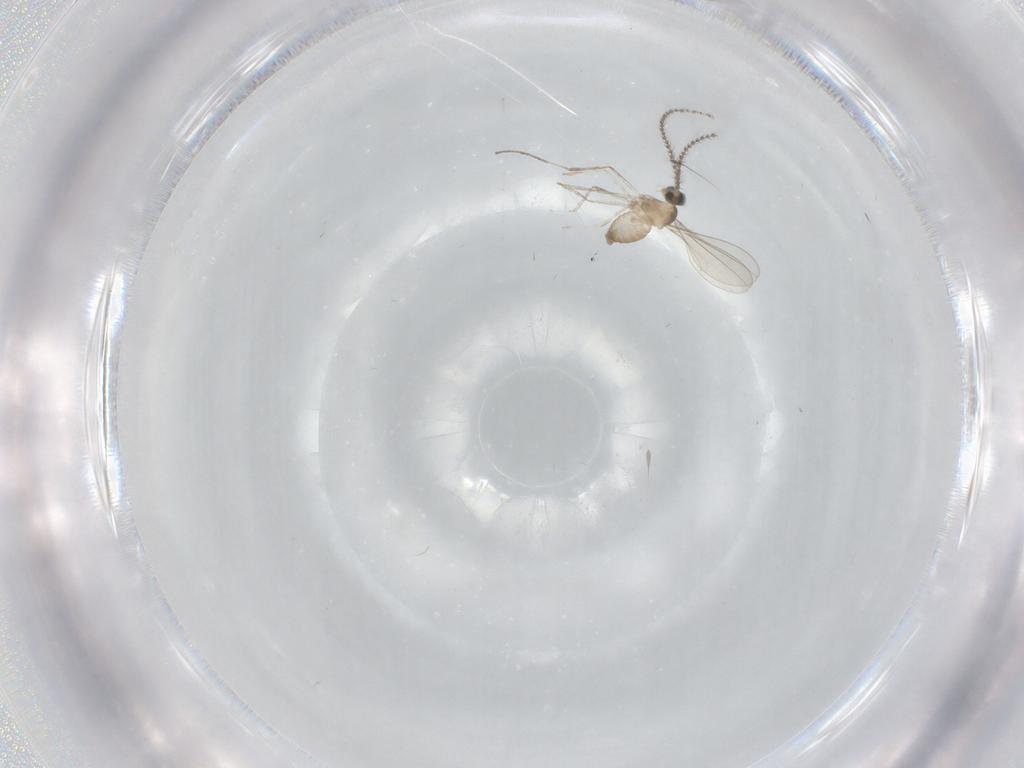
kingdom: Animalia
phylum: Arthropoda
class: Insecta
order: Diptera
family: Cecidomyiidae
